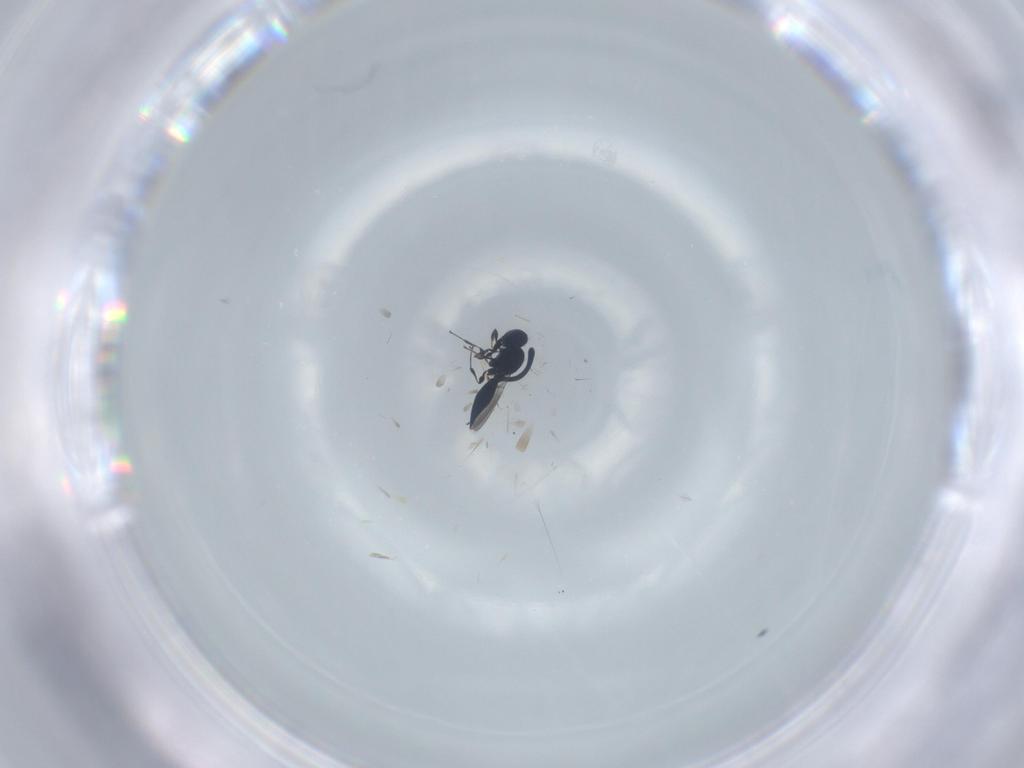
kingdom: Animalia
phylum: Arthropoda
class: Insecta
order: Hymenoptera
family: Platygastridae
